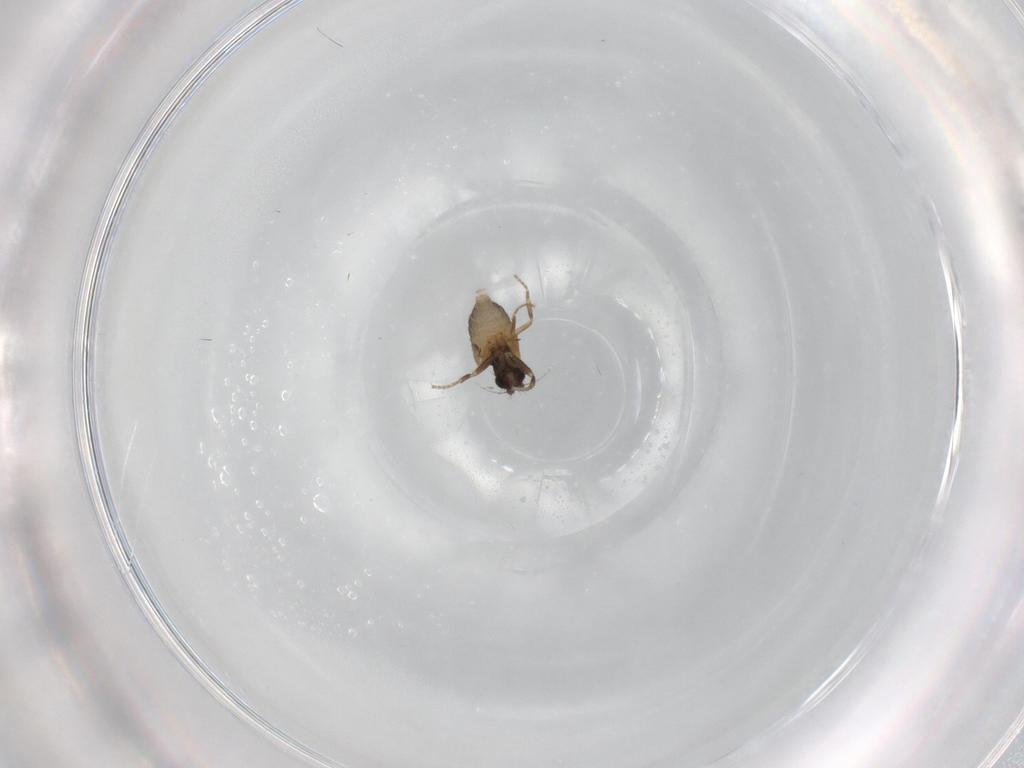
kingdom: Animalia
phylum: Arthropoda
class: Insecta
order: Diptera
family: Phoridae
